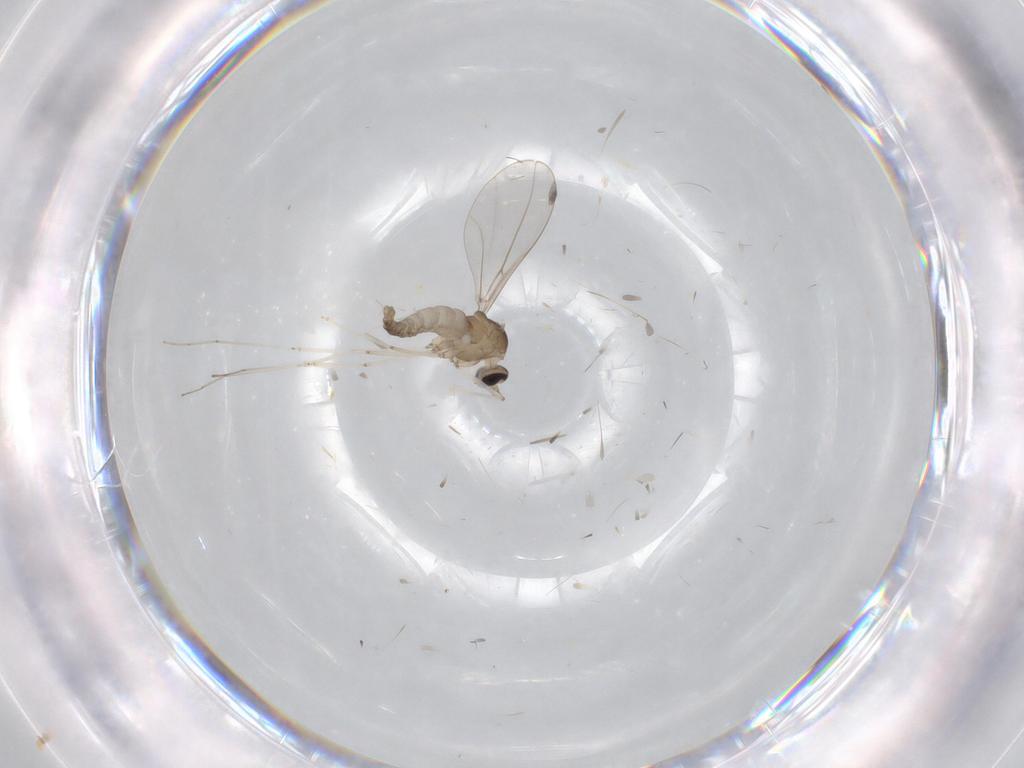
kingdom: Animalia
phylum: Arthropoda
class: Insecta
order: Diptera
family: Cecidomyiidae
